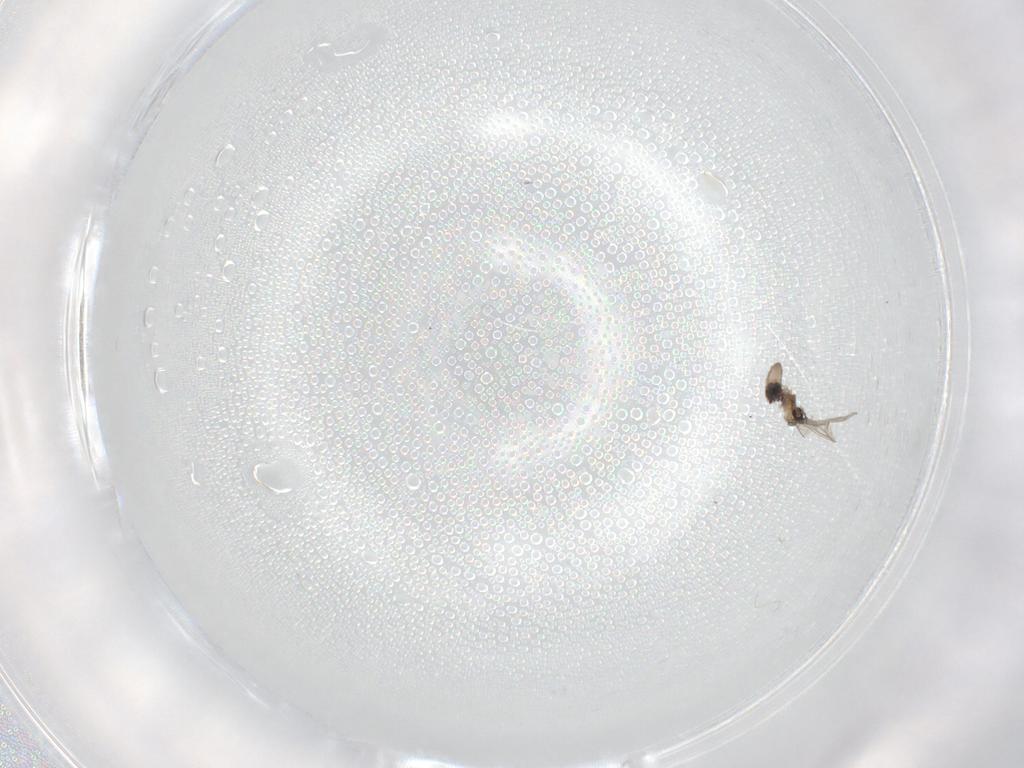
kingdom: Animalia
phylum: Arthropoda
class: Insecta
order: Diptera
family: Cecidomyiidae
